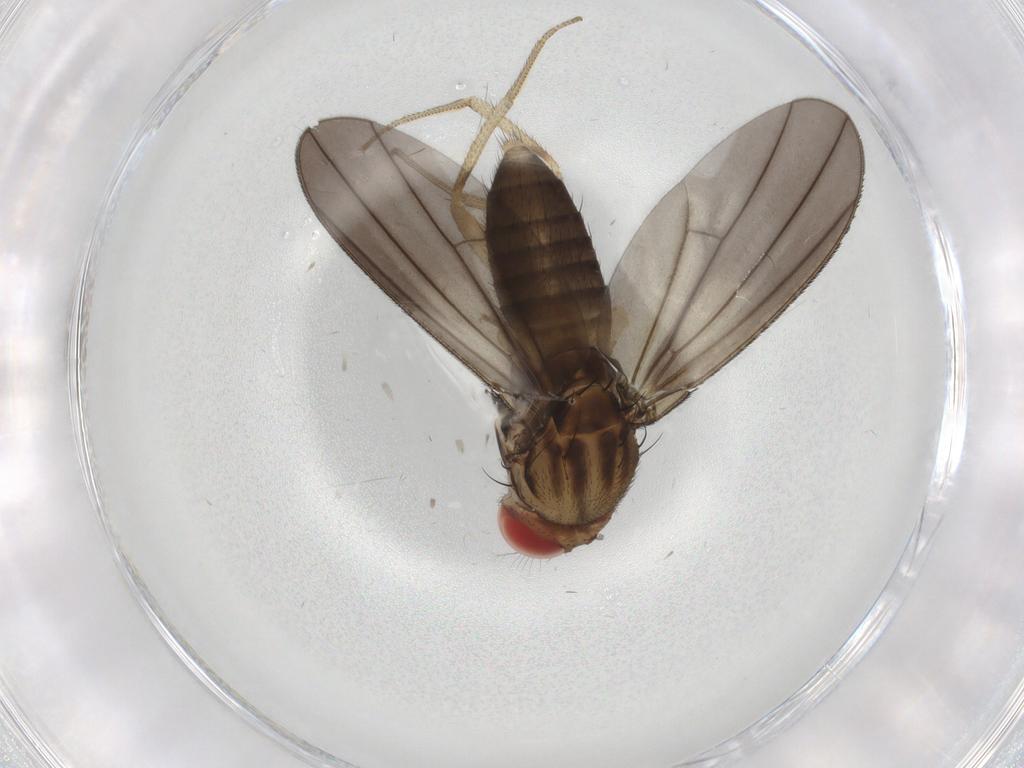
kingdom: Animalia
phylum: Arthropoda
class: Insecta
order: Diptera
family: Drosophilidae
